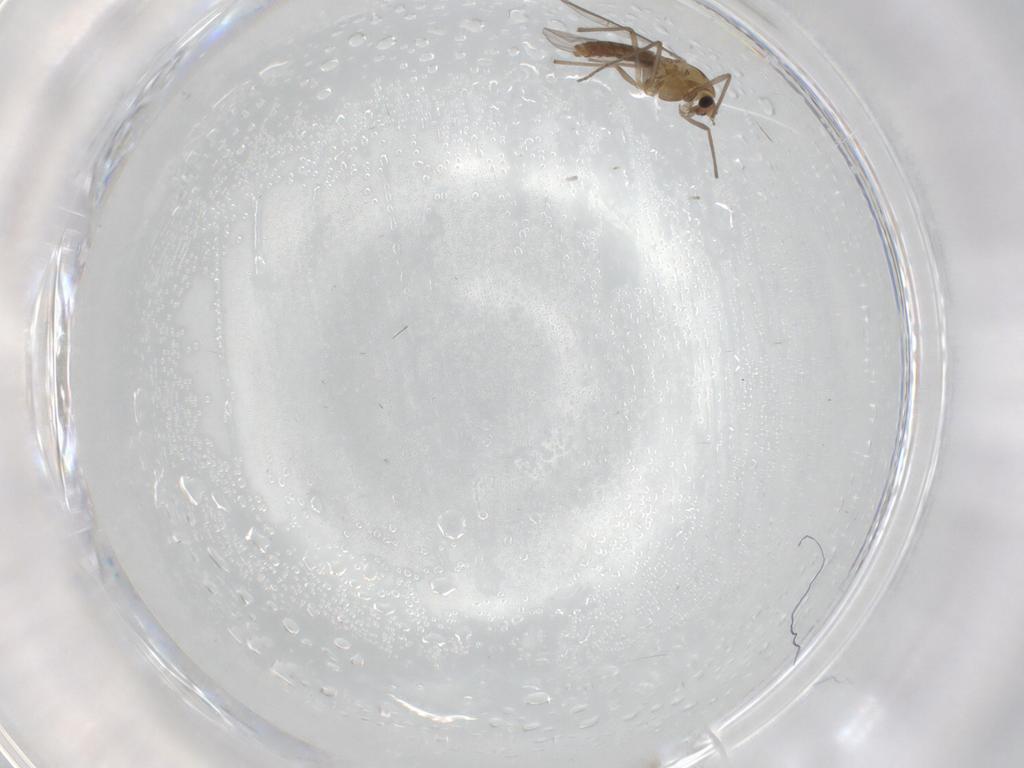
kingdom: Animalia
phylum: Arthropoda
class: Insecta
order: Diptera
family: Chironomidae
